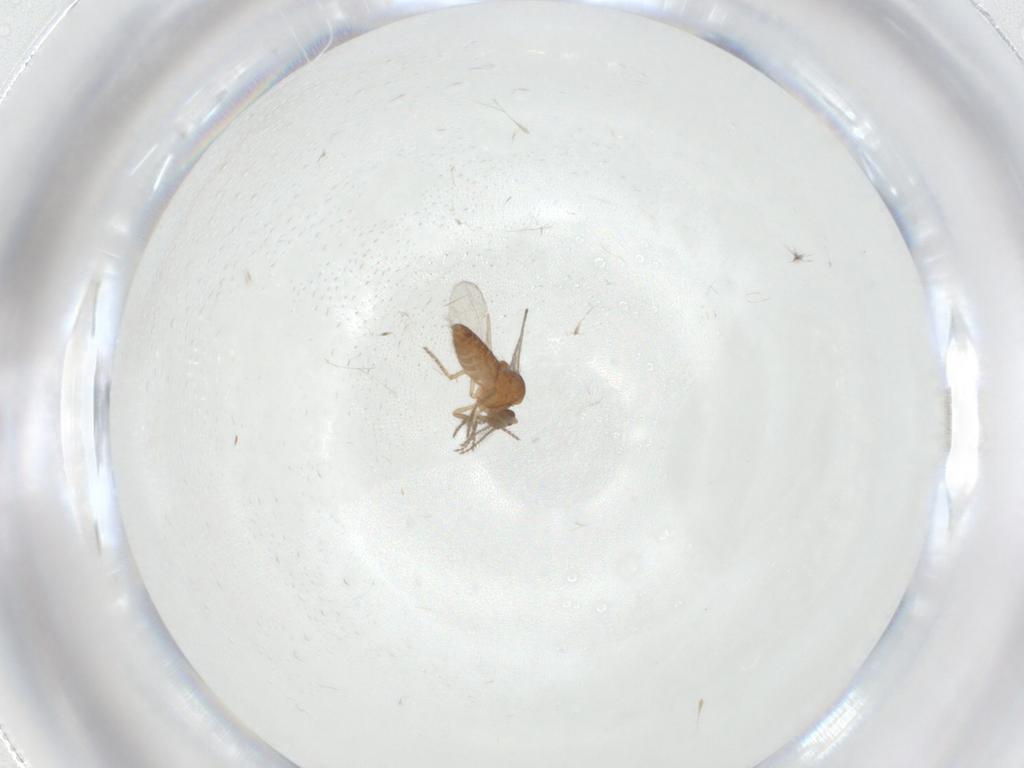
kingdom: Animalia
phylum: Arthropoda
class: Insecta
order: Diptera
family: Ceratopogonidae
